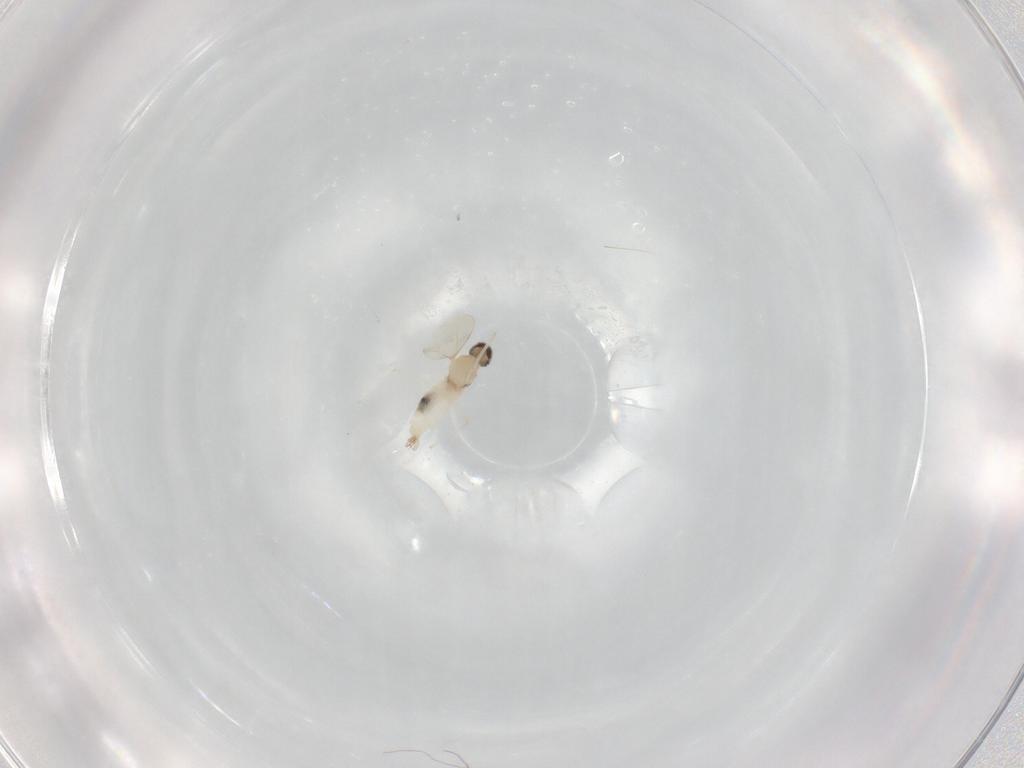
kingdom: Animalia
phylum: Arthropoda
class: Insecta
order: Diptera
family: Cecidomyiidae
